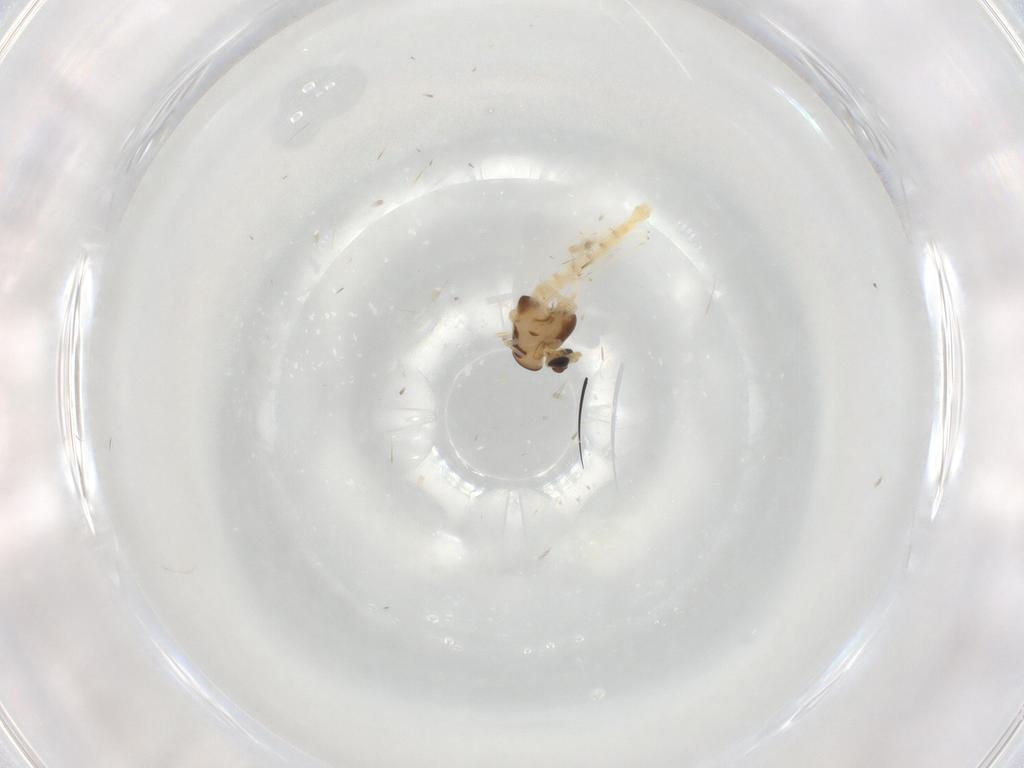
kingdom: Animalia
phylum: Arthropoda
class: Insecta
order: Diptera
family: Chironomidae
